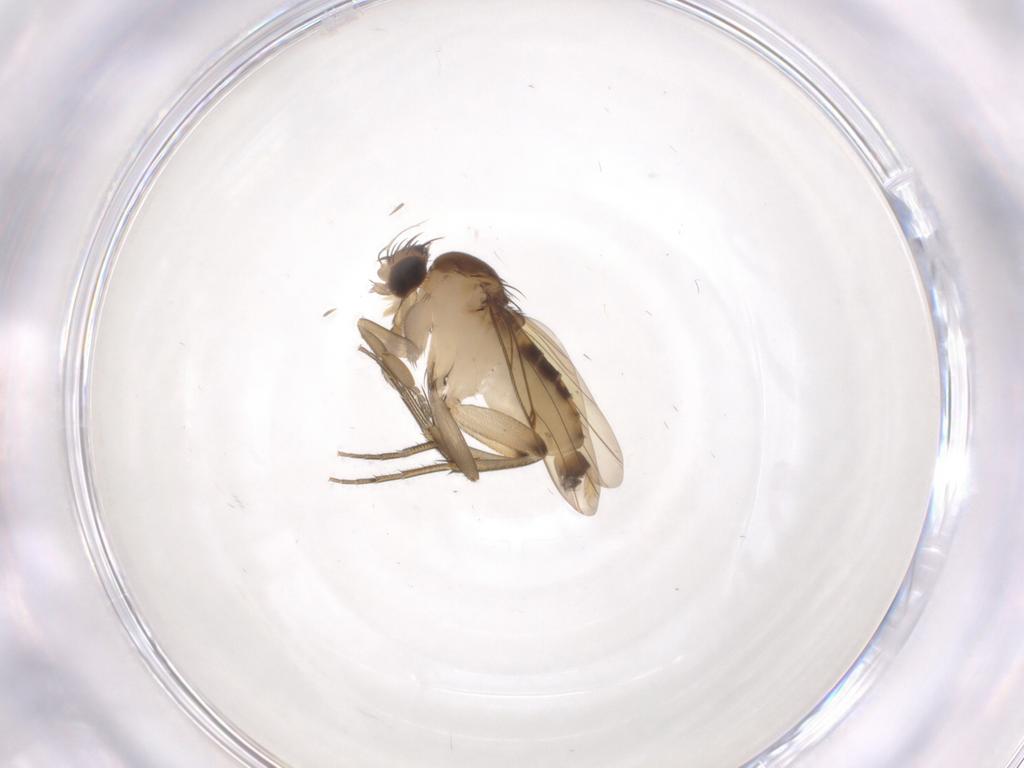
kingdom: Animalia
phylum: Arthropoda
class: Insecta
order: Diptera
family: Phoridae
